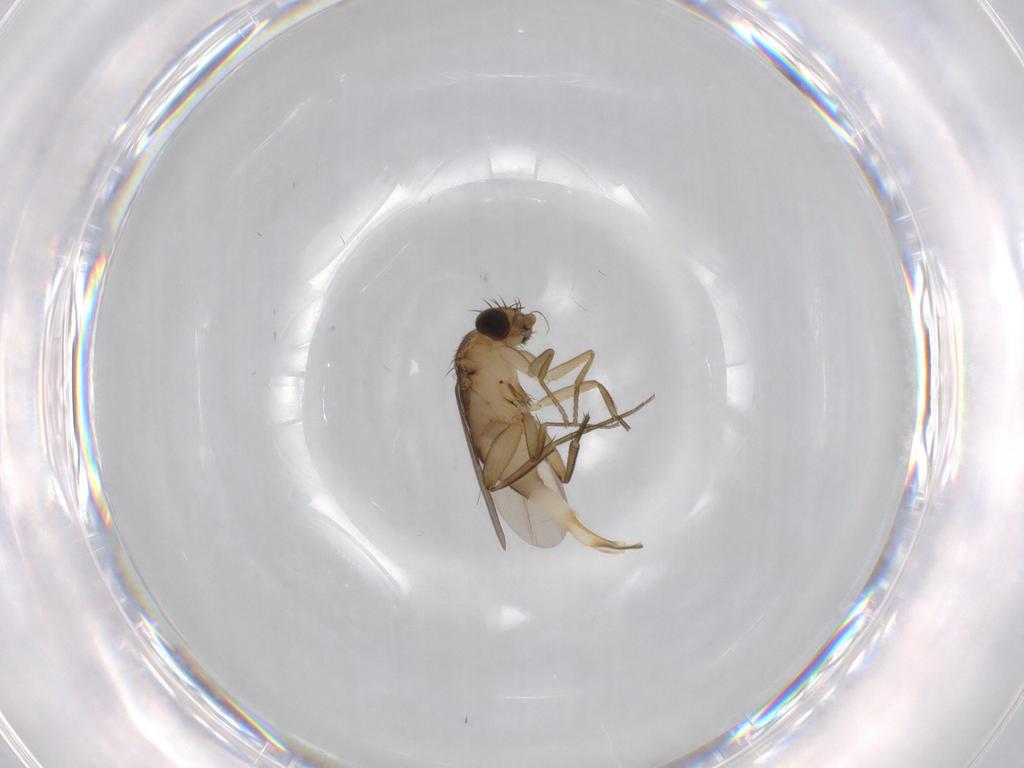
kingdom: Animalia
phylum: Arthropoda
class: Insecta
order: Diptera
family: Phoridae
